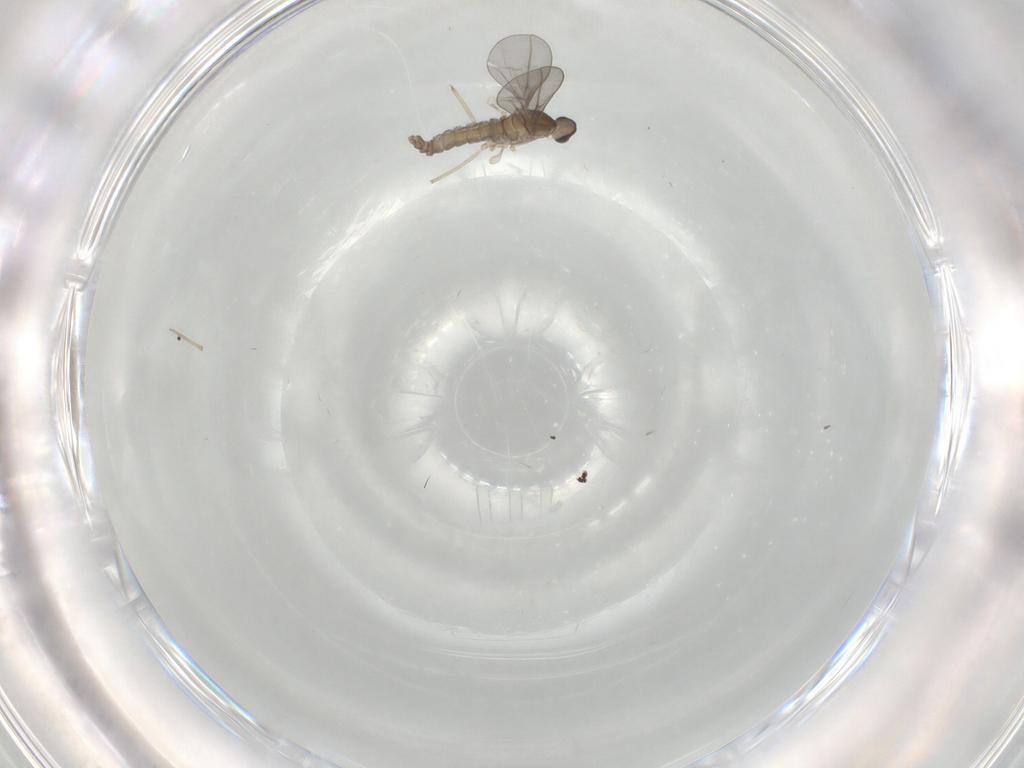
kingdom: Animalia
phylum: Arthropoda
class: Insecta
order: Diptera
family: Cecidomyiidae
